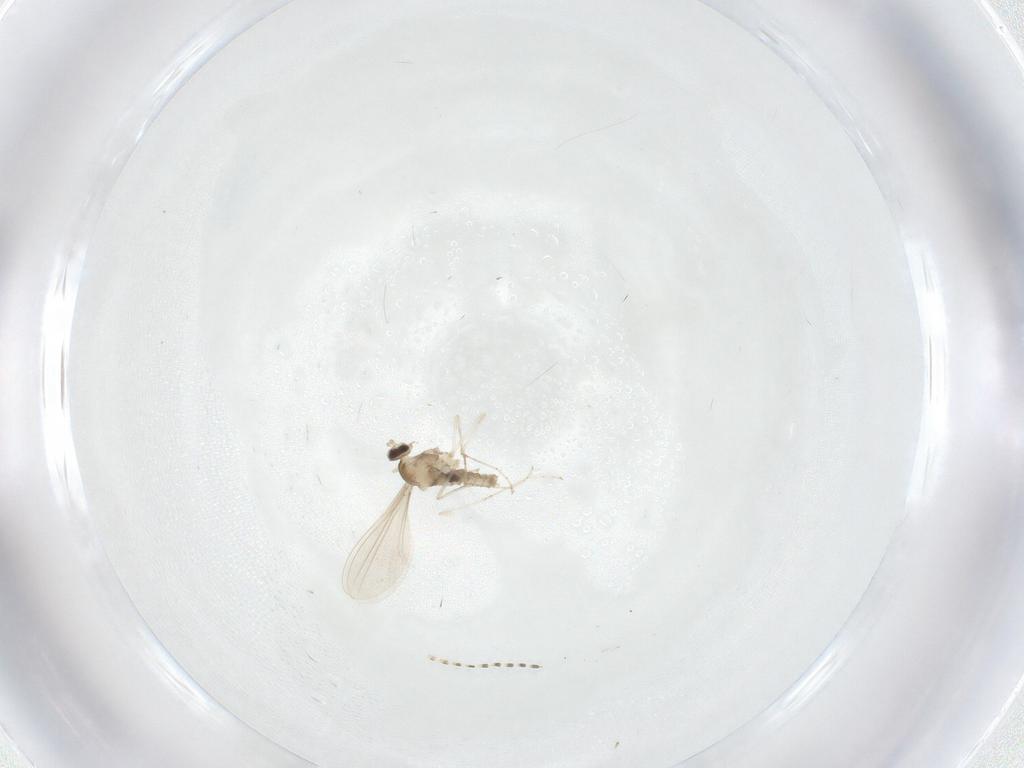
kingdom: Animalia
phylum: Arthropoda
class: Insecta
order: Diptera
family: Cecidomyiidae
